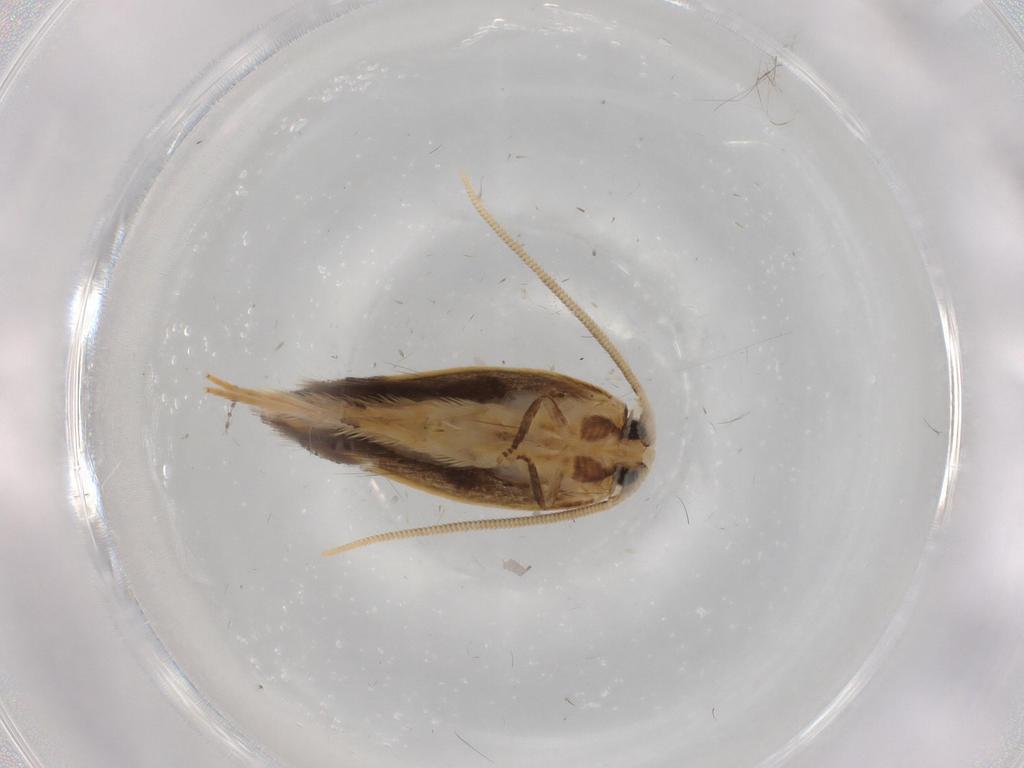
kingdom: Animalia
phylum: Arthropoda
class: Insecta
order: Lepidoptera
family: Opostegidae
